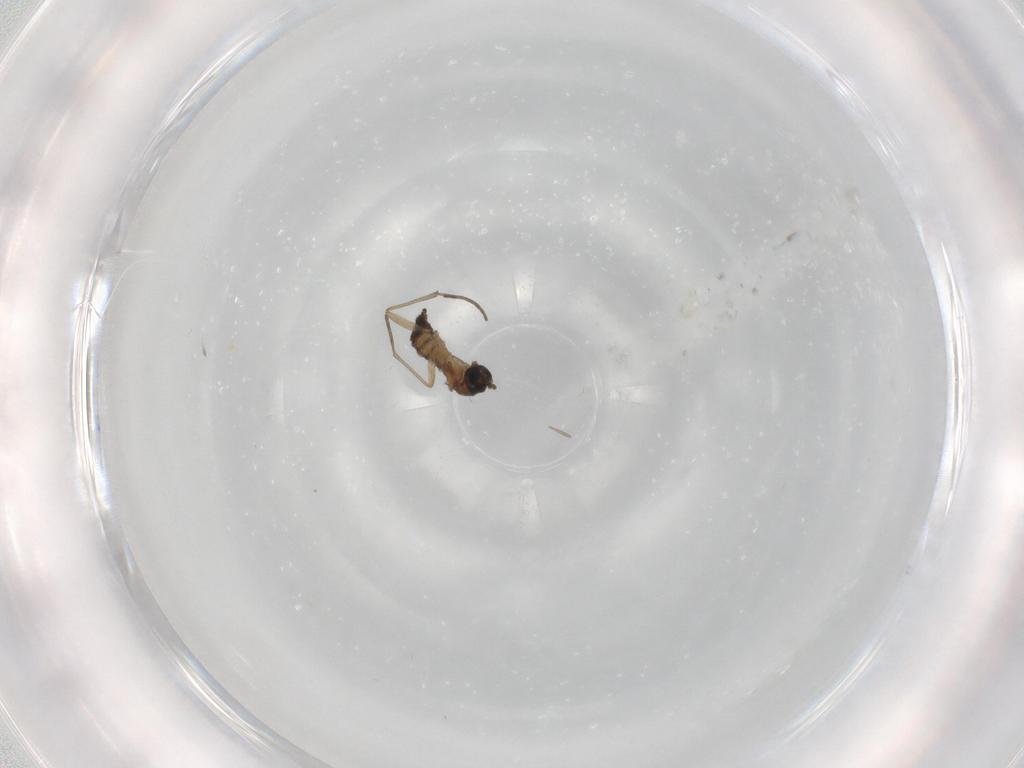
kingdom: Animalia
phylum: Arthropoda
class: Insecta
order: Diptera
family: Sciaridae
